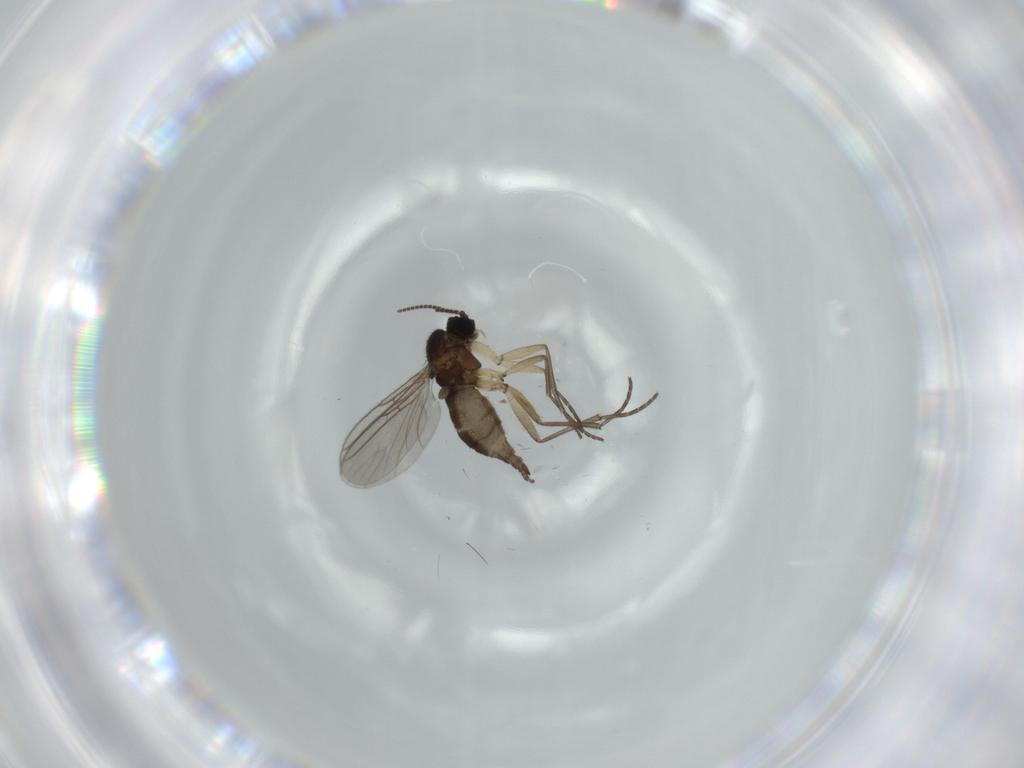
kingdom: Animalia
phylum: Arthropoda
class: Insecta
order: Diptera
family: Sciaridae
